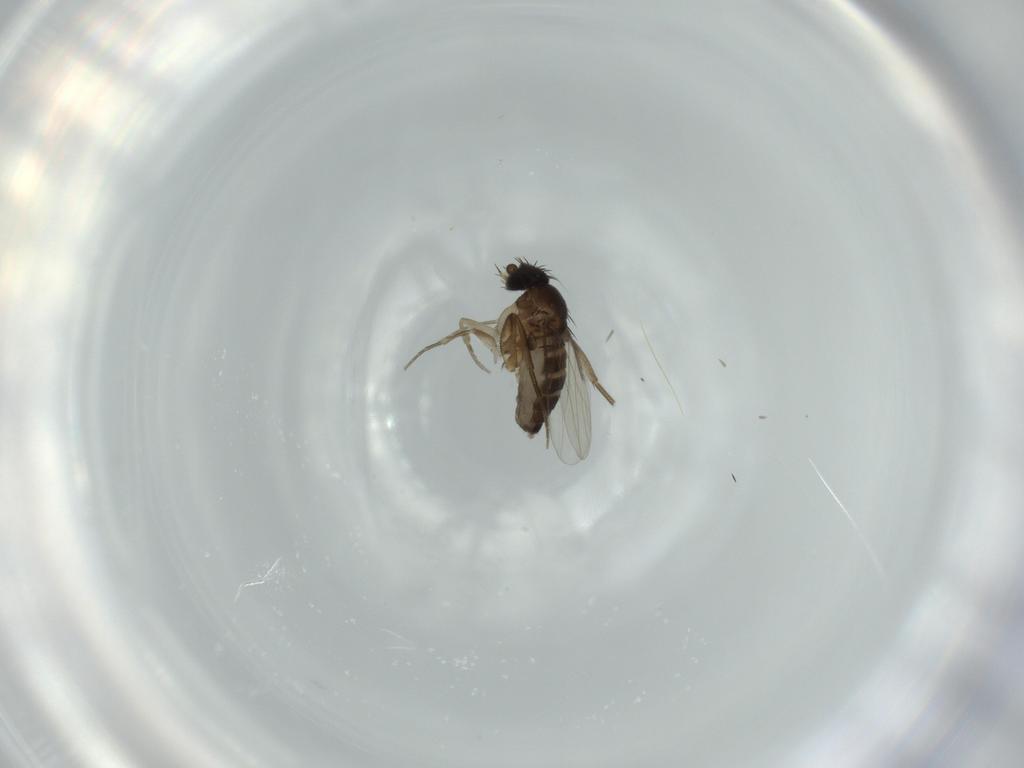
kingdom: Animalia
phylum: Arthropoda
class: Insecta
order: Diptera
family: Phoridae
